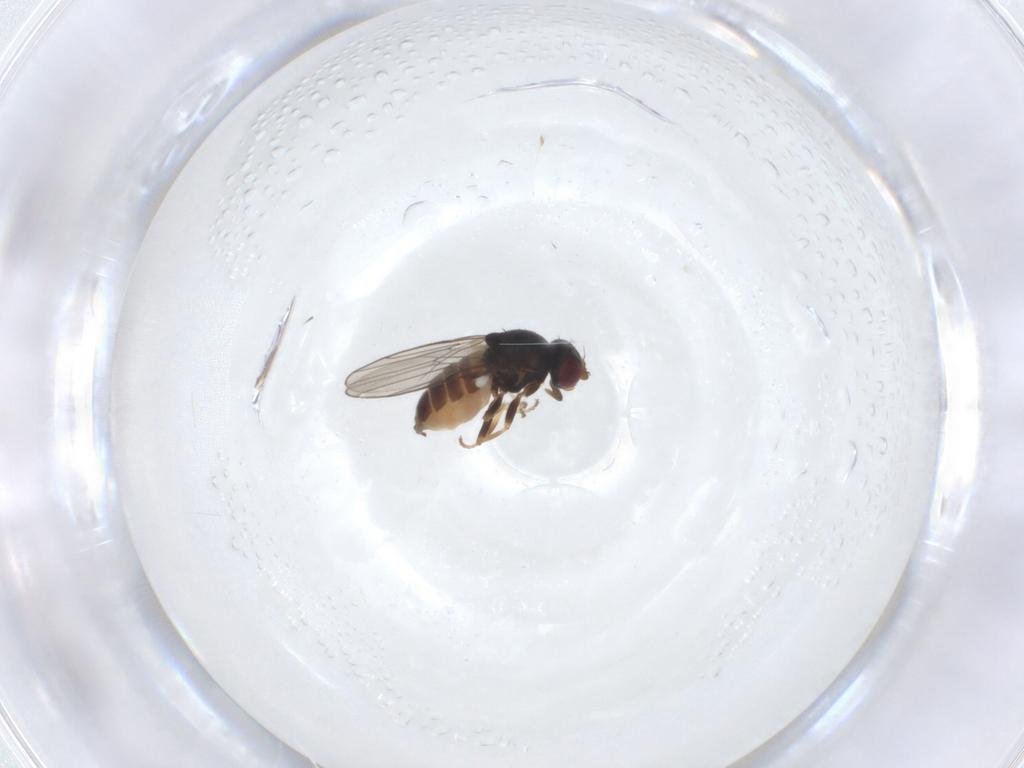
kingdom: Animalia
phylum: Arthropoda
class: Insecta
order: Diptera
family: Chloropidae
